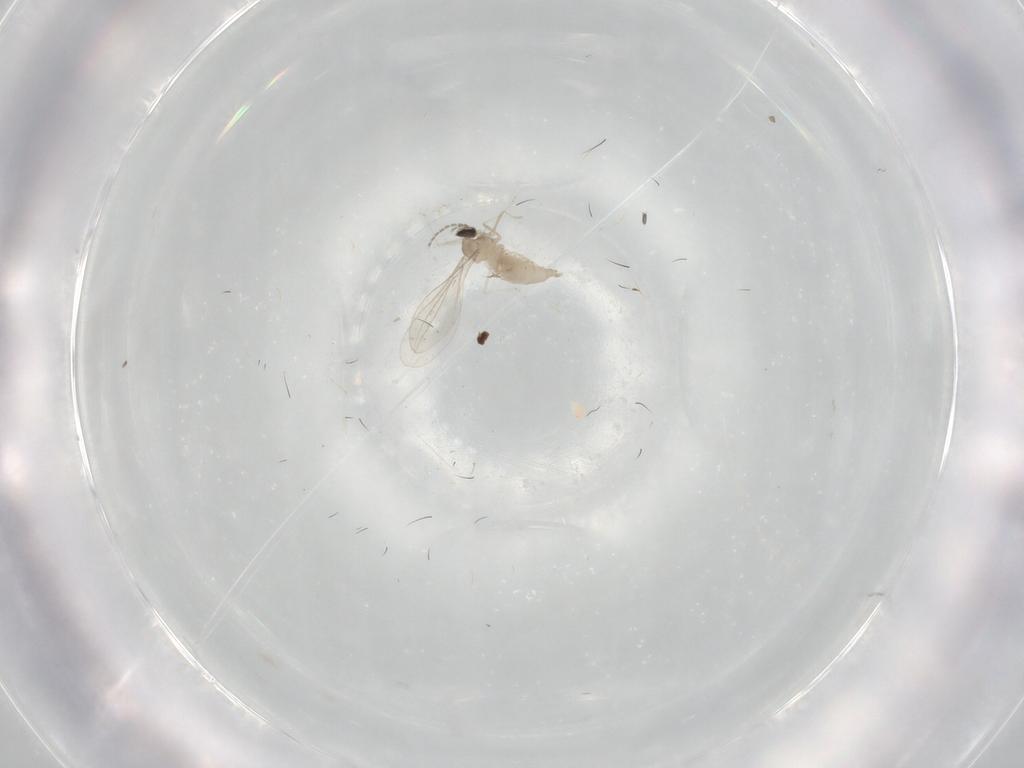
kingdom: Animalia
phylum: Arthropoda
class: Insecta
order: Diptera
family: Cecidomyiidae
